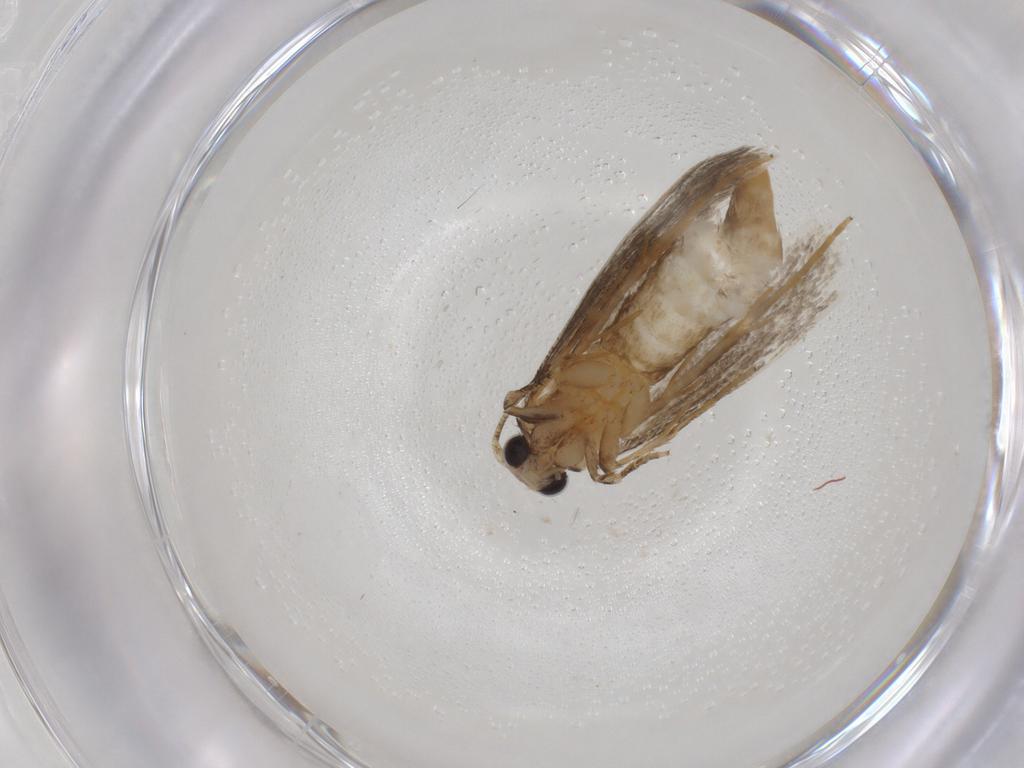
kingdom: Animalia
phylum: Arthropoda
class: Insecta
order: Lepidoptera
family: Tineidae
